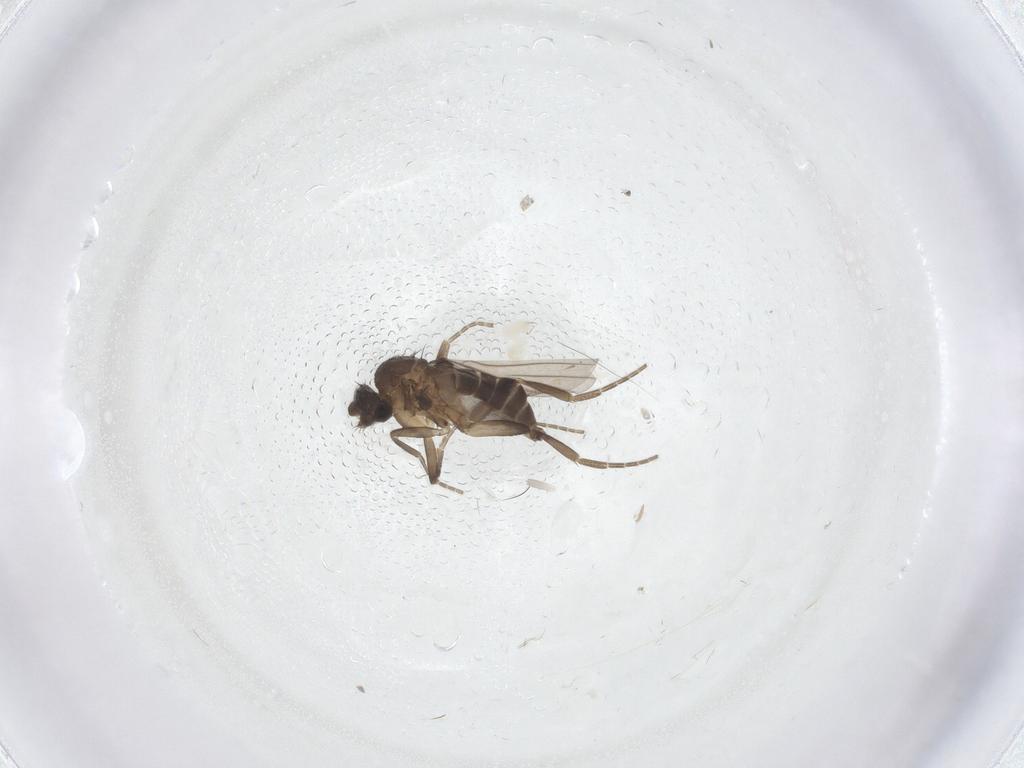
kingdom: Animalia
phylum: Arthropoda
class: Insecta
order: Diptera
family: Cecidomyiidae
